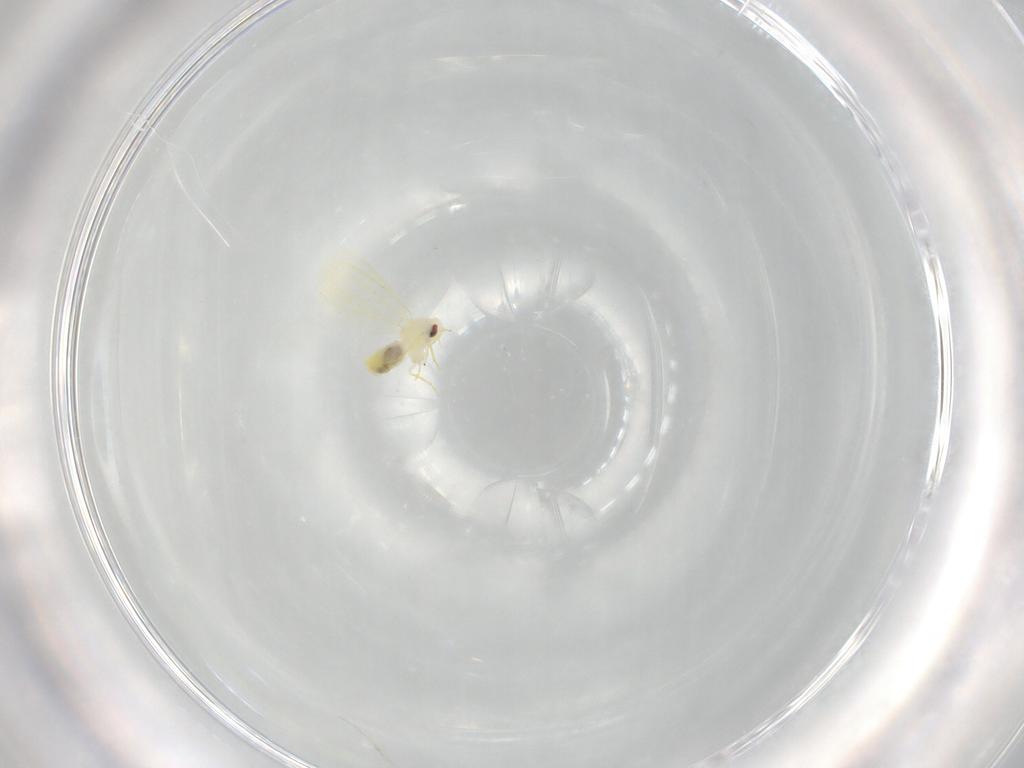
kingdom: Animalia
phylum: Arthropoda
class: Insecta
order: Hemiptera
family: Aleyrodidae
